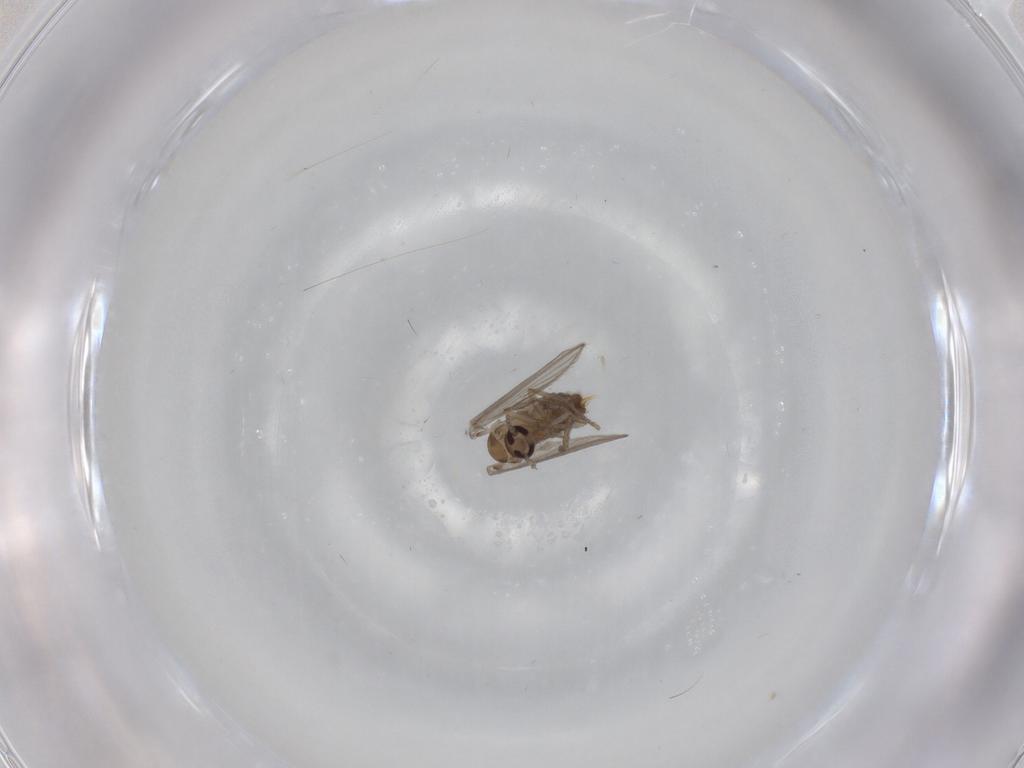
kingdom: Animalia
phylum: Arthropoda
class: Insecta
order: Diptera
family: Psychodidae
